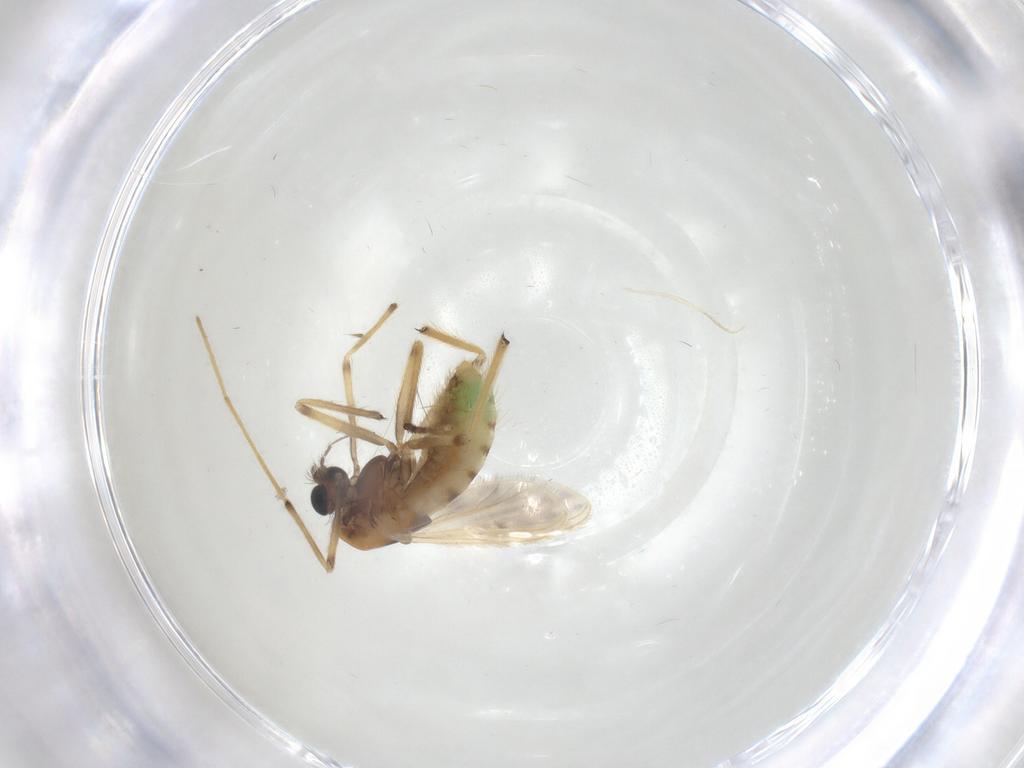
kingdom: Animalia
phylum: Arthropoda
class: Insecta
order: Diptera
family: Chironomidae
